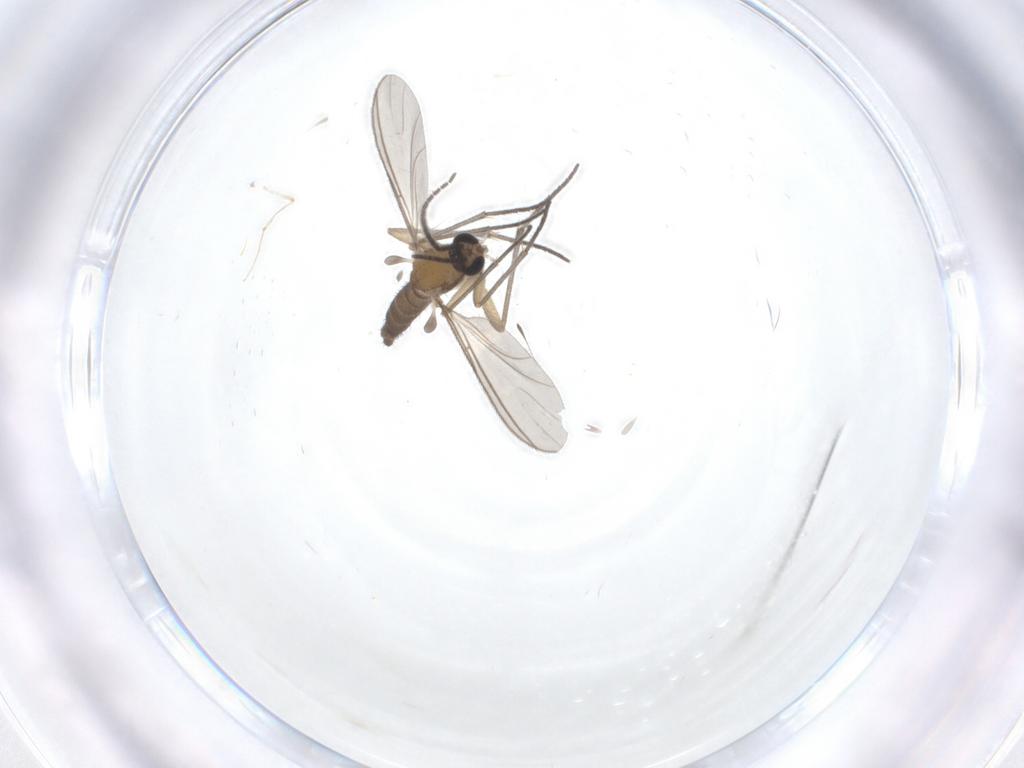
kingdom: Animalia
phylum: Arthropoda
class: Insecta
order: Diptera
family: Sciaridae
